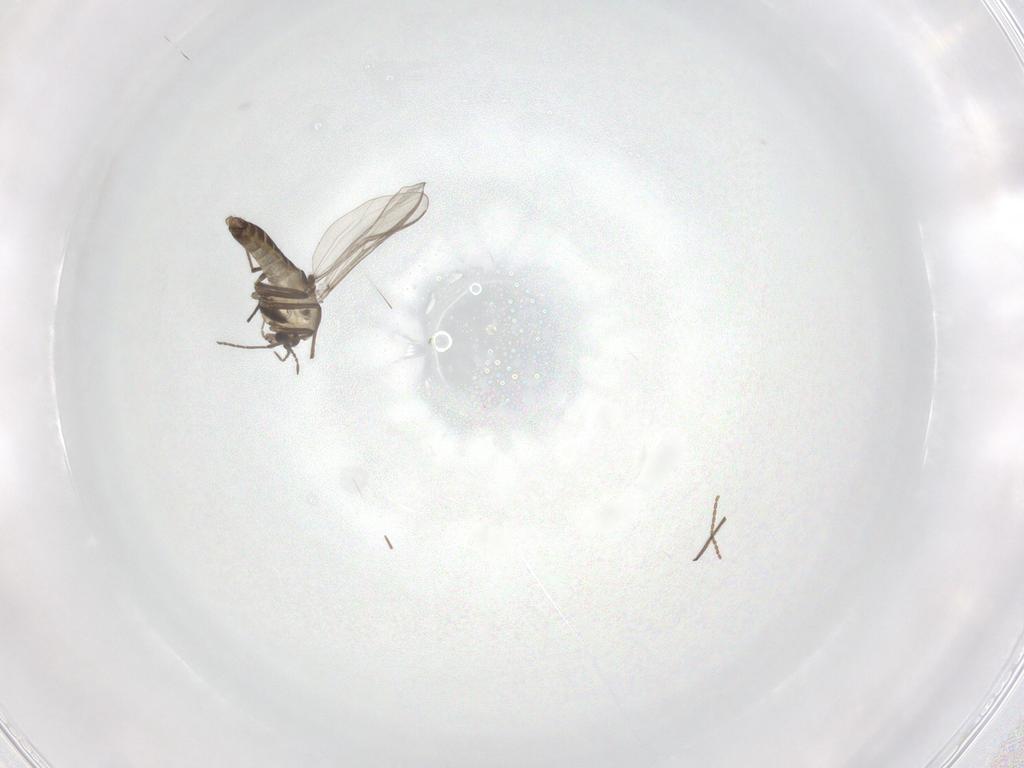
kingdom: Animalia
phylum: Arthropoda
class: Insecta
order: Diptera
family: Chironomidae
